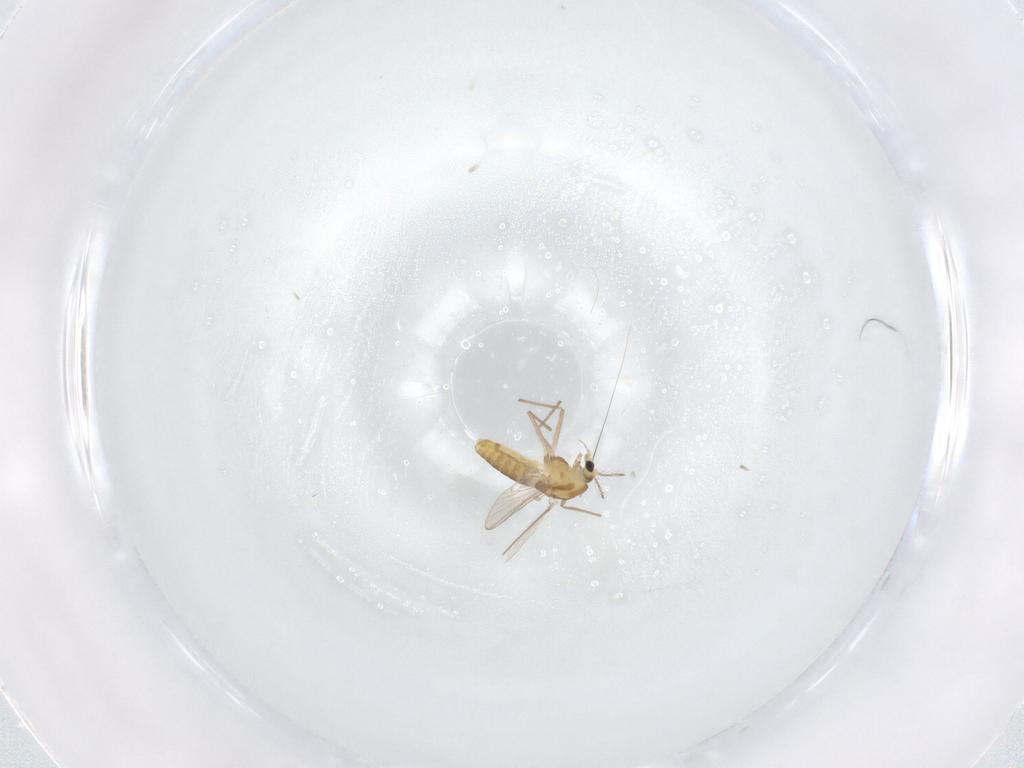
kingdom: Animalia
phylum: Arthropoda
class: Insecta
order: Diptera
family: Chironomidae
